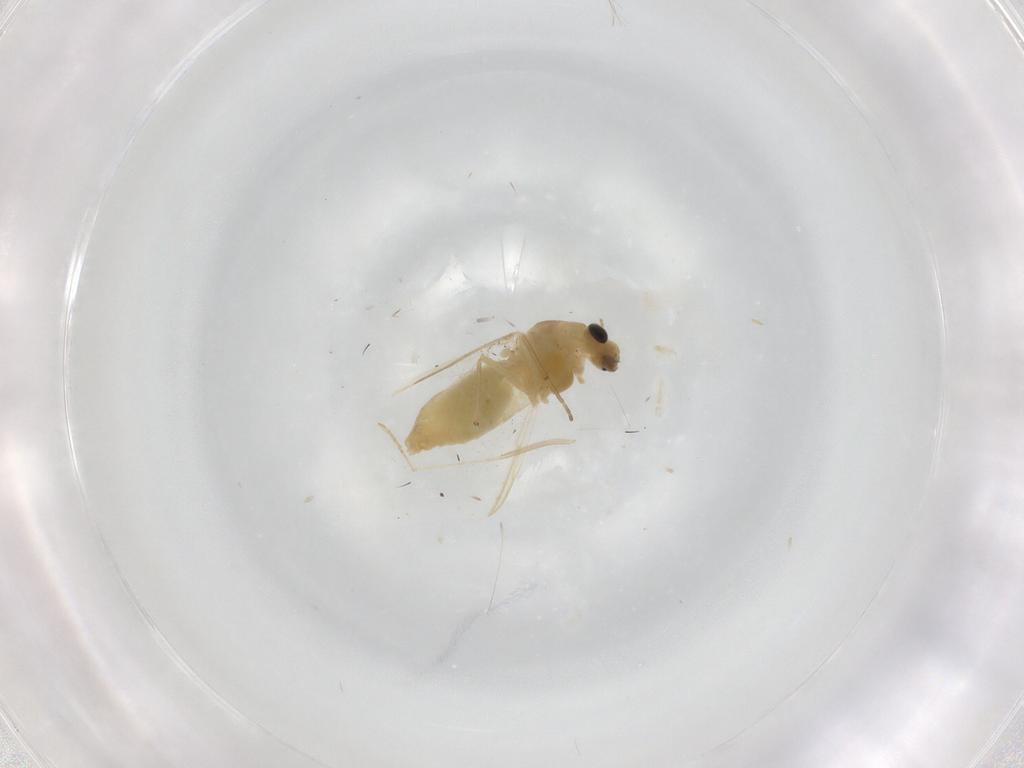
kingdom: Animalia
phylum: Arthropoda
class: Insecta
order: Diptera
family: Chironomidae
